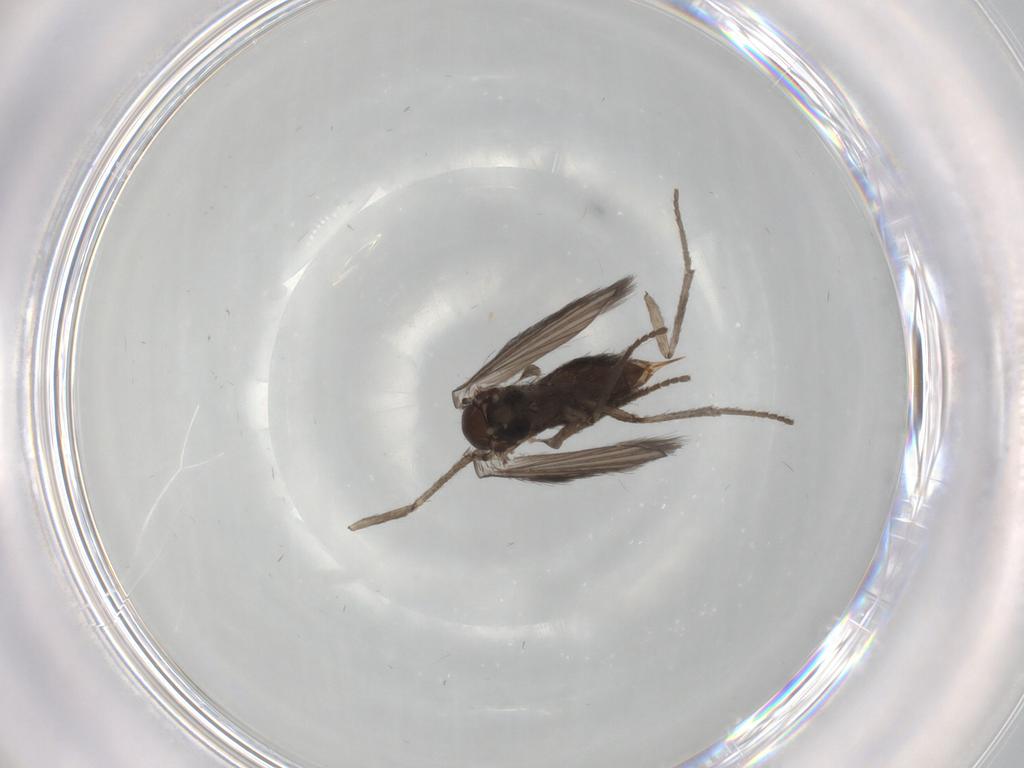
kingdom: Animalia
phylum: Arthropoda
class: Insecta
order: Diptera
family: Psychodidae
